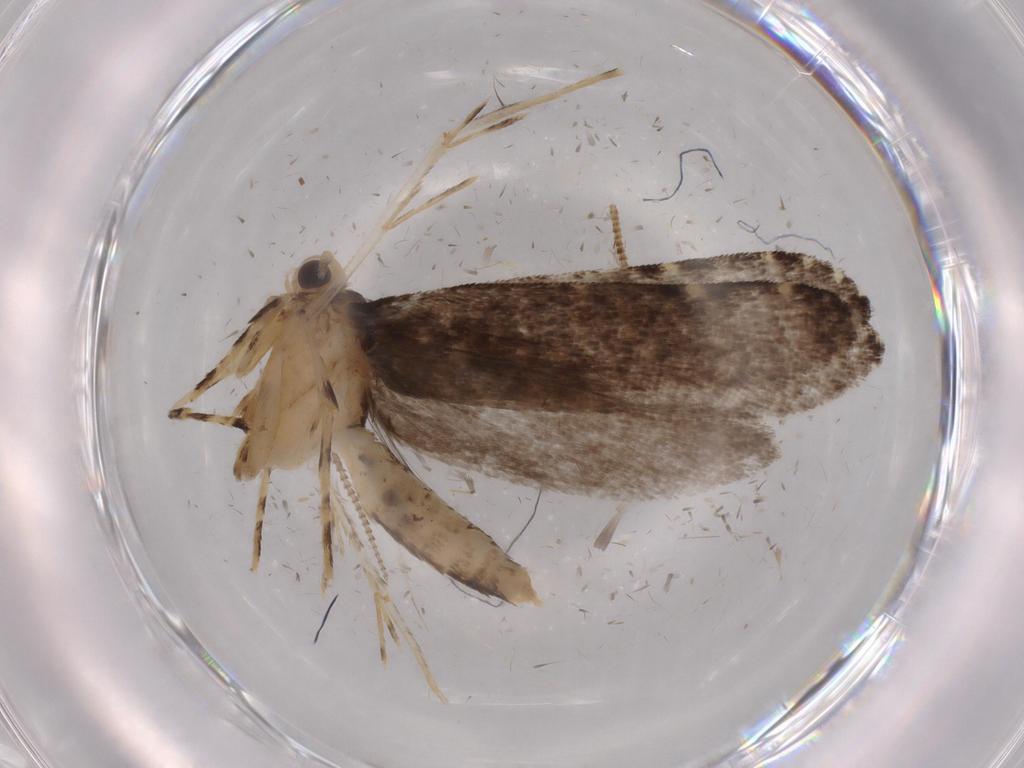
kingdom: Animalia
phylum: Arthropoda
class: Insecta
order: Lepidoptera
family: Tineidae
